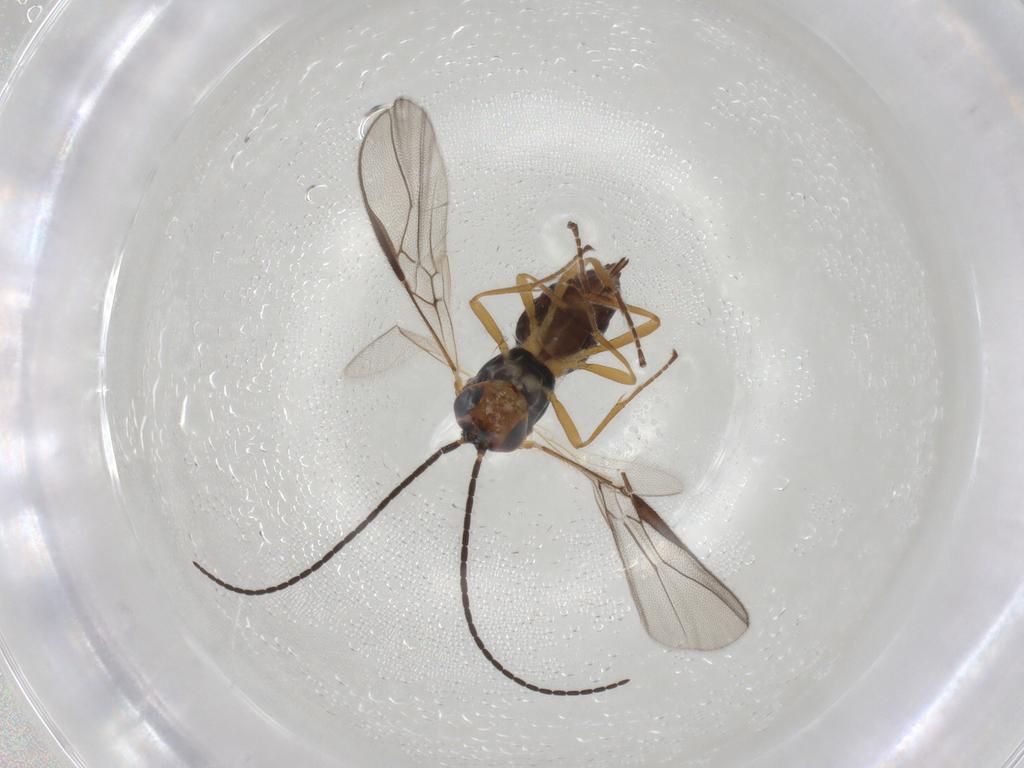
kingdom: Animalia
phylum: Arthropoda
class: Insecta
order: Hymenoptera
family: Braconidae
